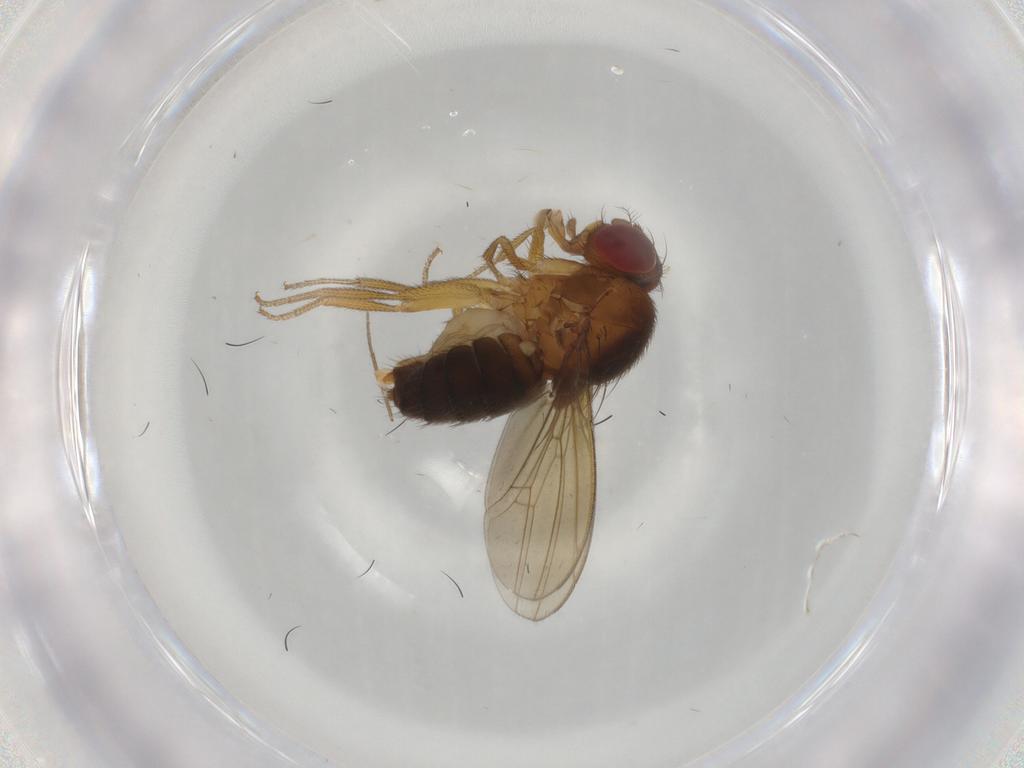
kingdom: Animalia
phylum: Arthropoda
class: Insecta
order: Diptera
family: Drosophilidae
